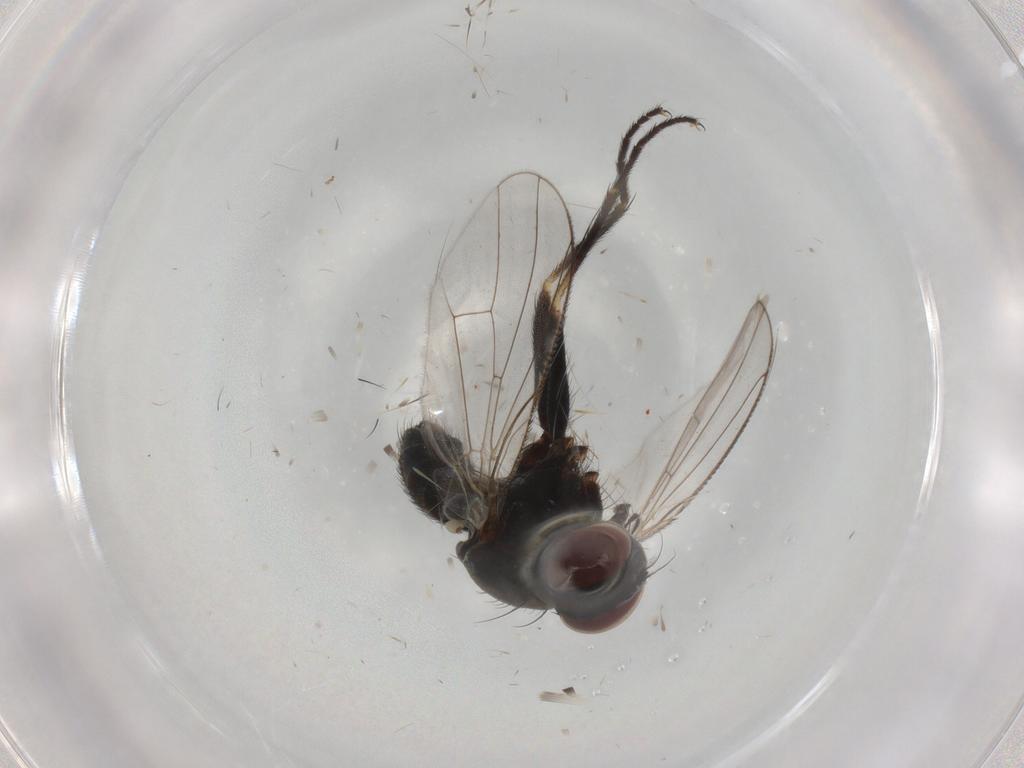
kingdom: Animalia
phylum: Arthropoda
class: Insecta
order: Diptera
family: Muscidae
